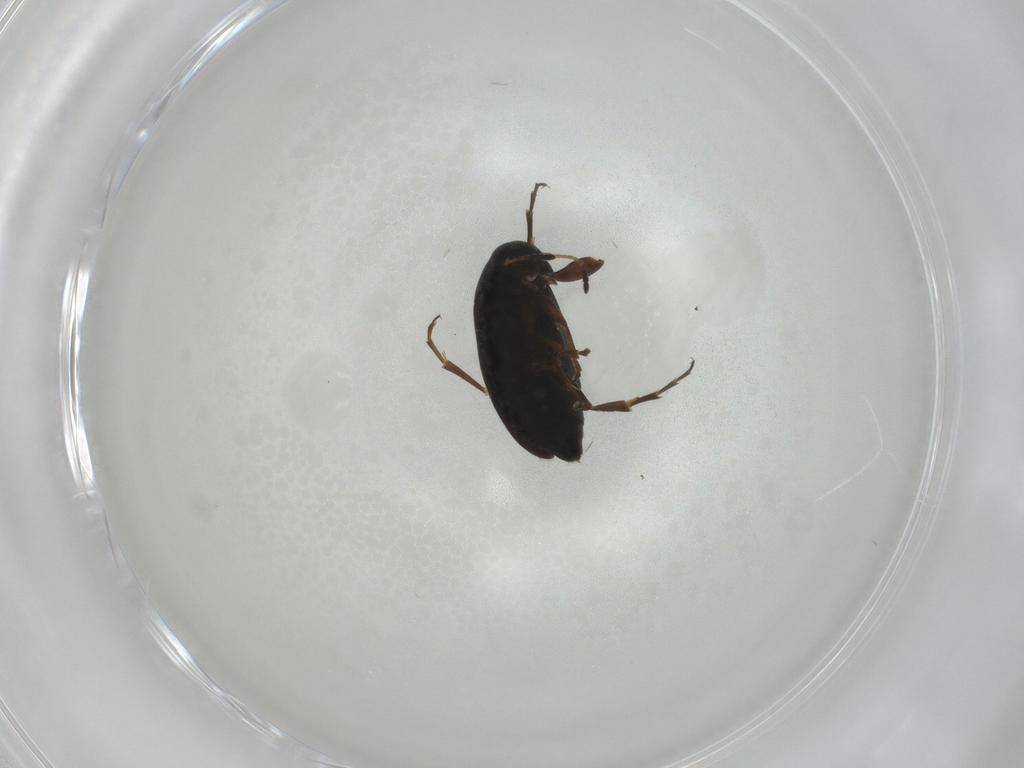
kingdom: Animalia
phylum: Arthropoda
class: Insecta
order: Coleoptera
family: Scraptiidae
